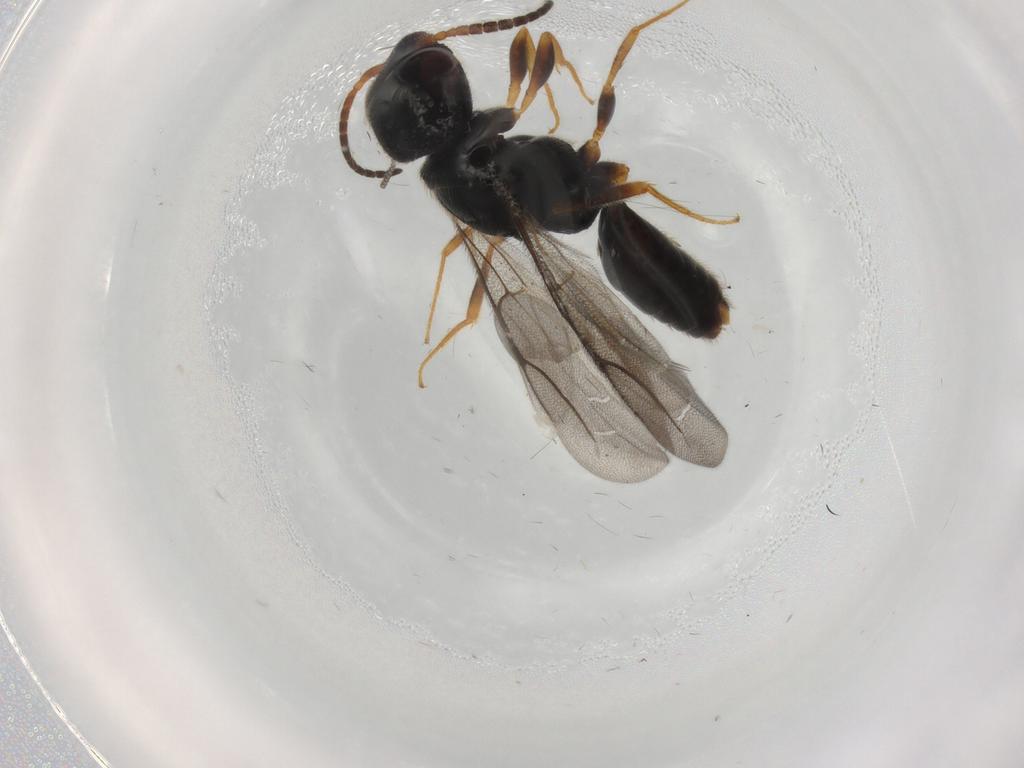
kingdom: Animalia
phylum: Arthropoda
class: Insecta
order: Hymenoptera
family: Bethylidae
